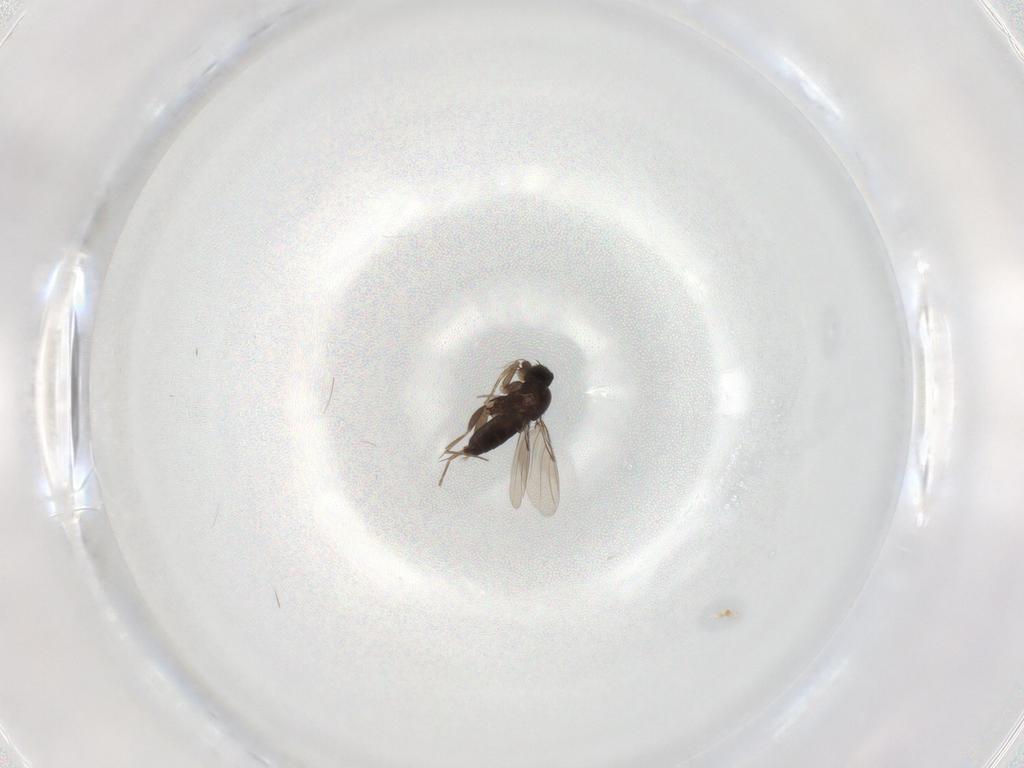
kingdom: Animalia
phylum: Arthropoda
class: Insecta
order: Diptera
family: Phoridae
